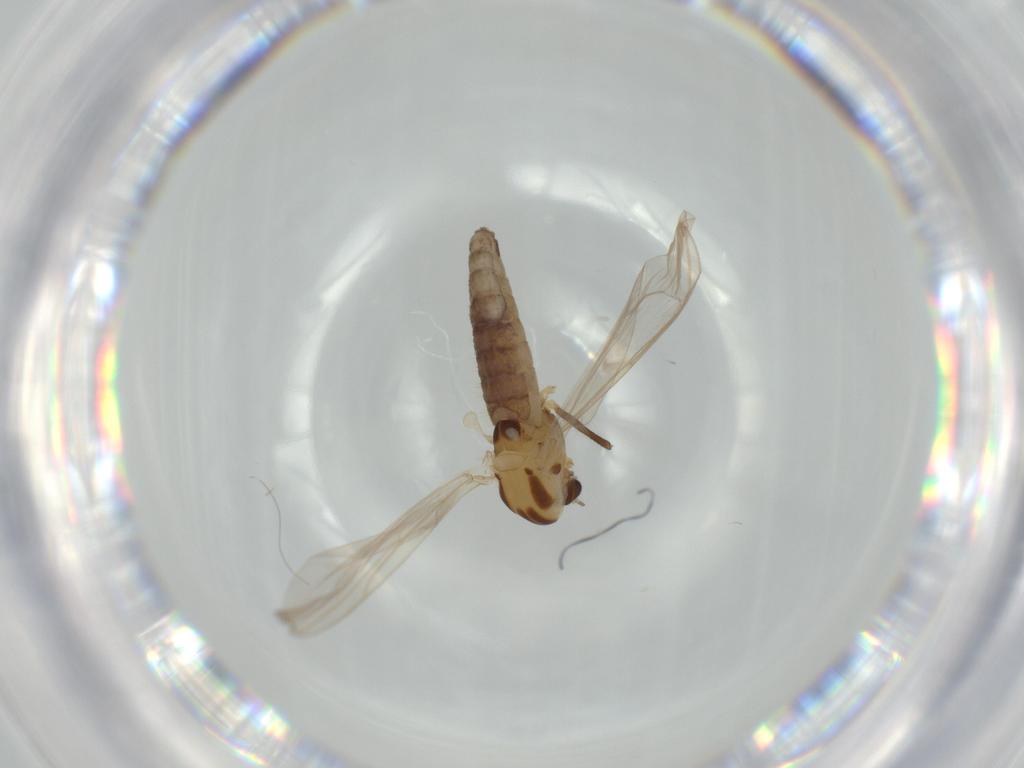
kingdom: Animalia
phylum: Arthropoda
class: Insecta
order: Diptera
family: Chironomidae
